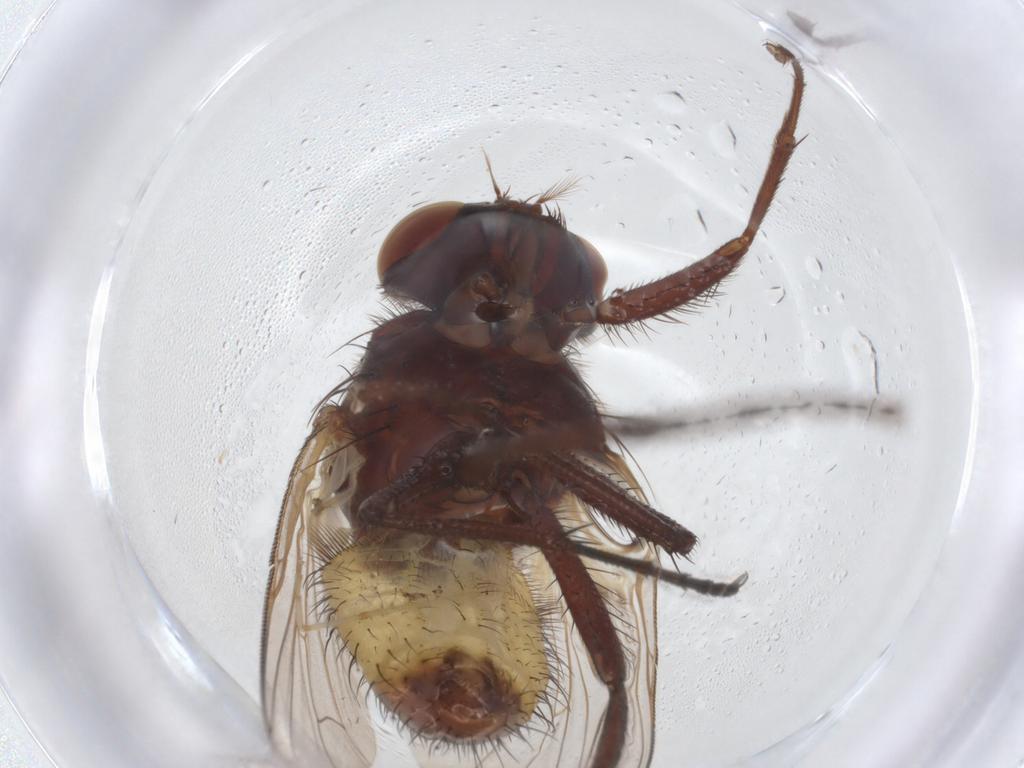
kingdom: Animalia
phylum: Arthropoda
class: Insecta
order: Diptera
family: Muscidae
